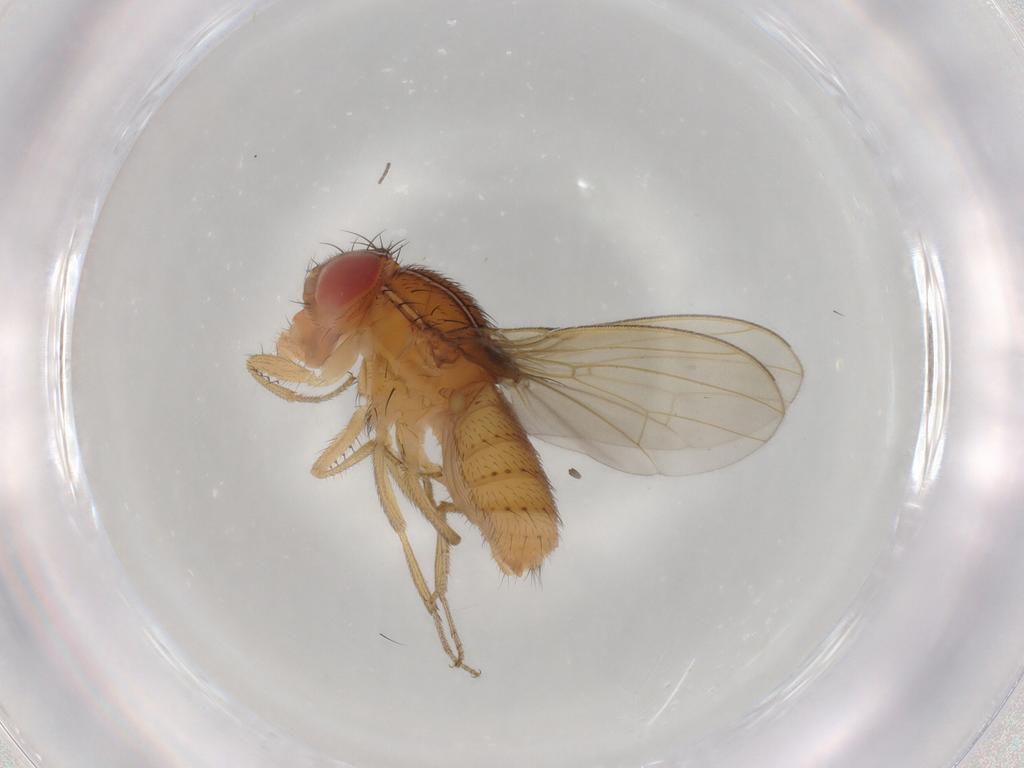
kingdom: Animalia
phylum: Arthropoda
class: Insecta
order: Diptera
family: Drosophilidae
